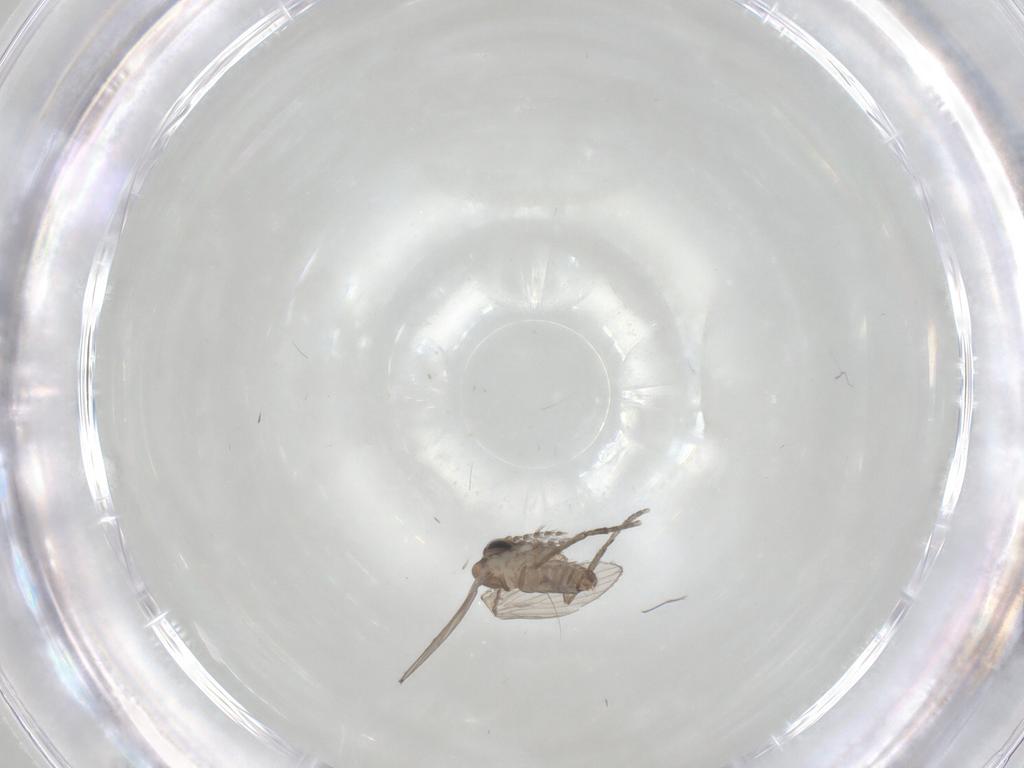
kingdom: Animalia
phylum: Arthropoda
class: Insecta
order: Diptera
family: Sciaridae
